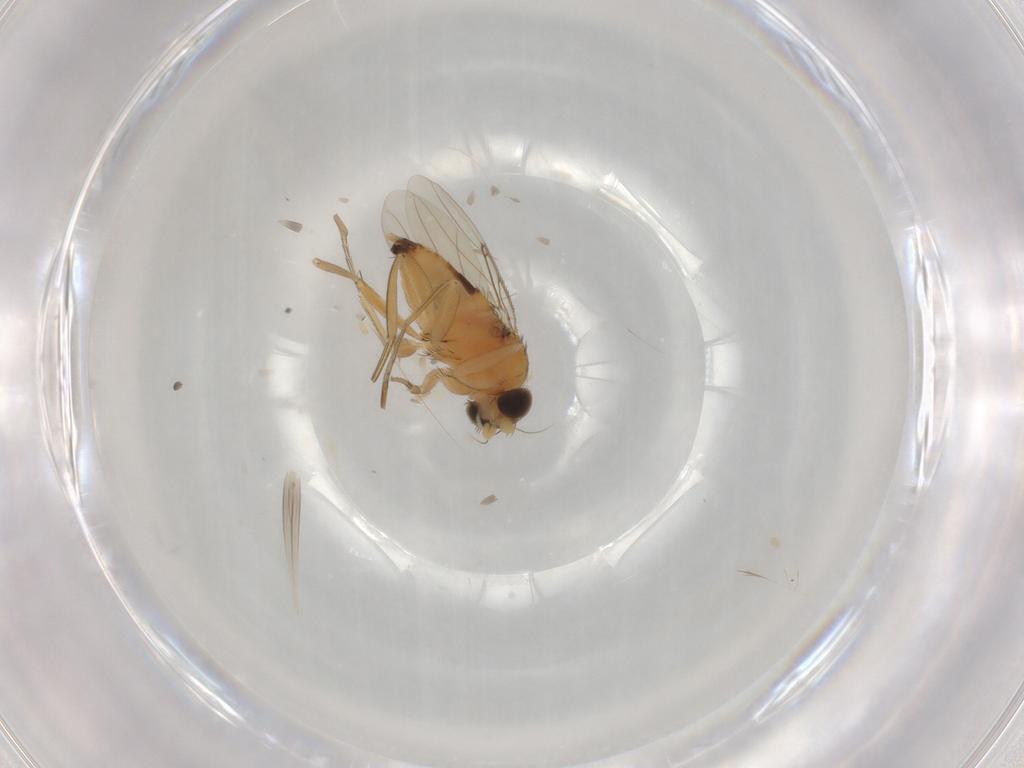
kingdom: Animalia
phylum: Arthropoda
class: Insecta
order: Diptera
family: Phoridae
